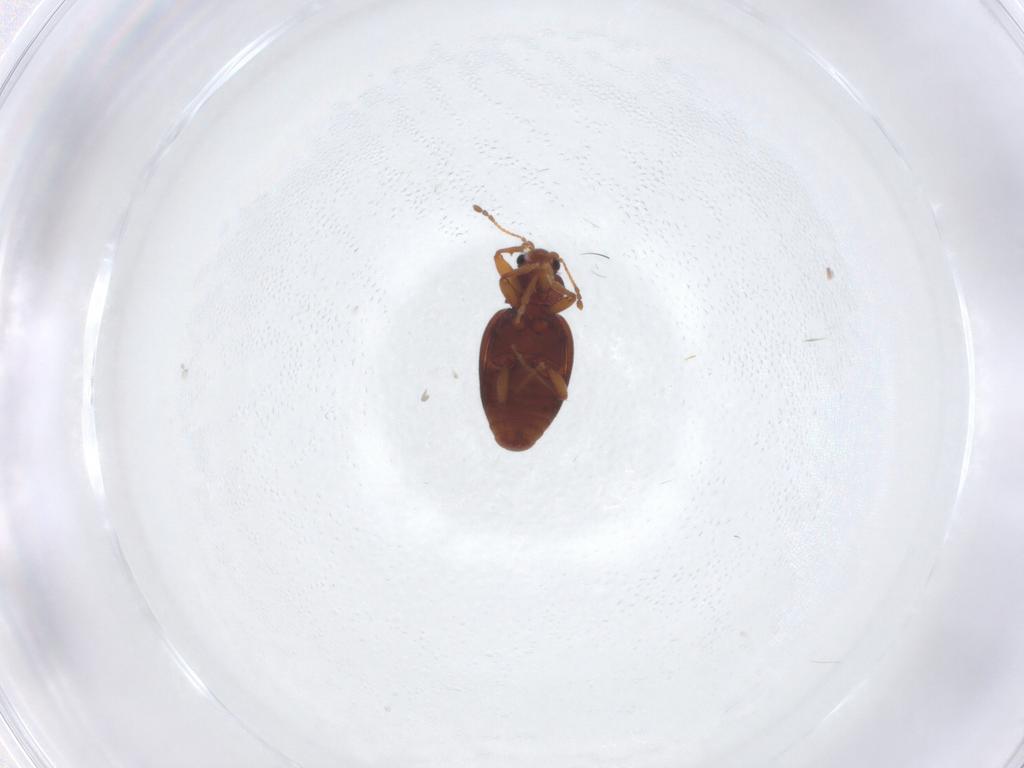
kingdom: Animalia
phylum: Arthropoda
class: Insecta
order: Coleoptera
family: Latridiidae
